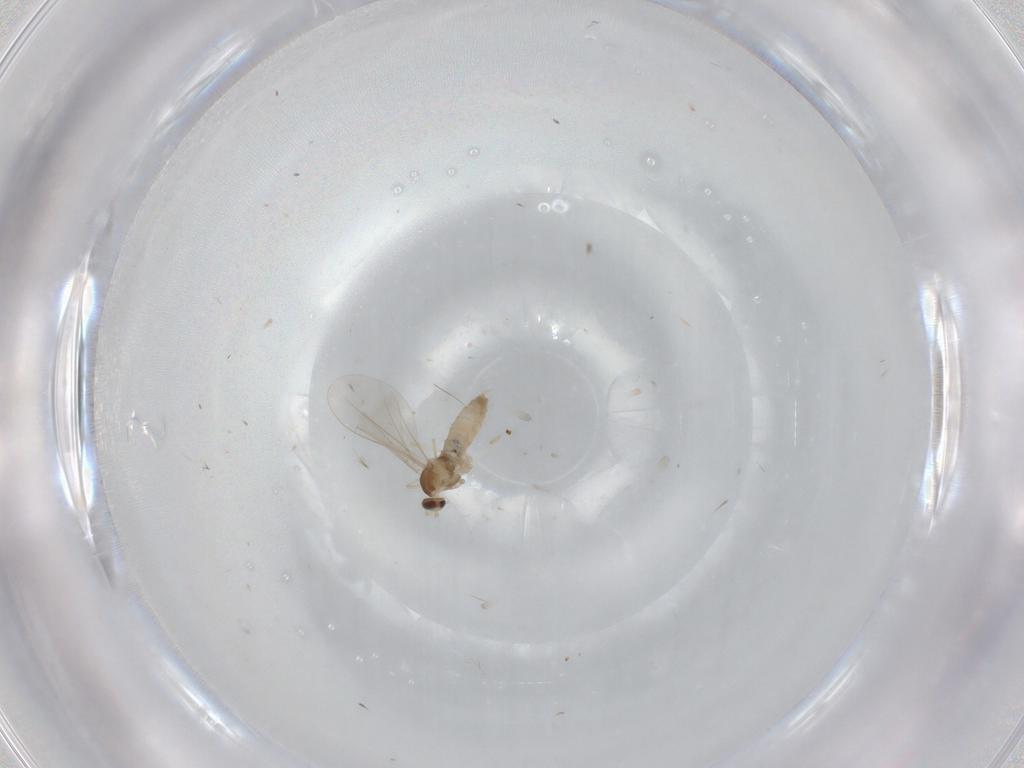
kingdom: Animalia
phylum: Arthropoda
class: Insecta
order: Diptera
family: Cecidomyiidae
